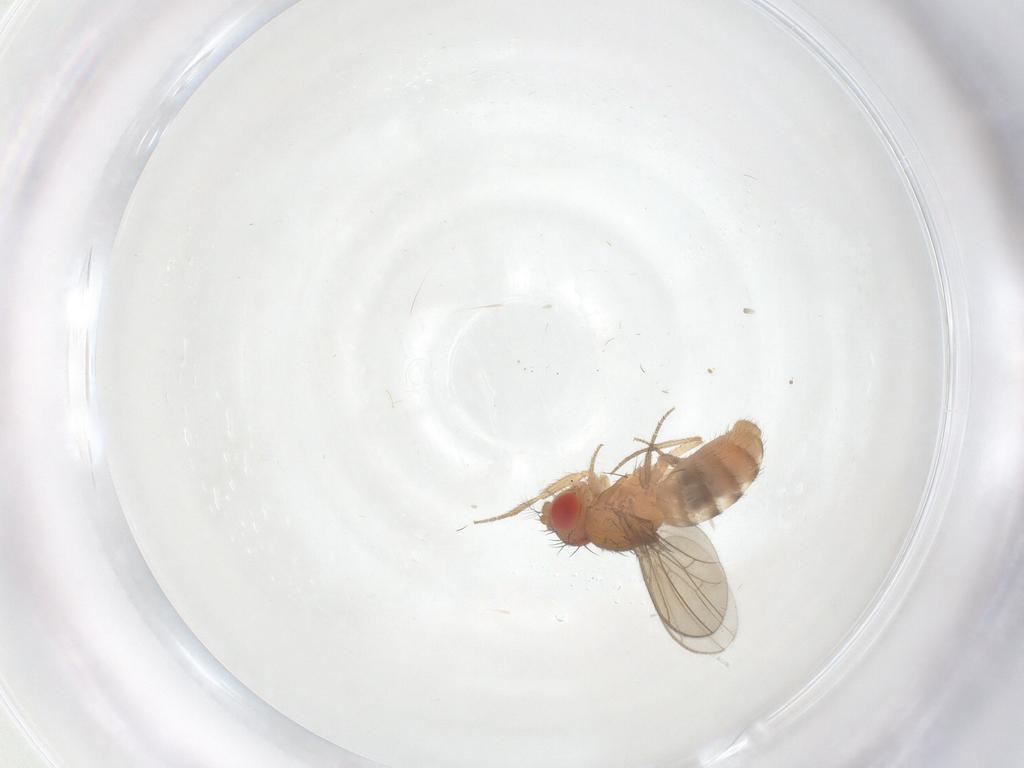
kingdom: Animalia
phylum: Arthropoda
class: Insecta
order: Diptera
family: Drosophilidae
